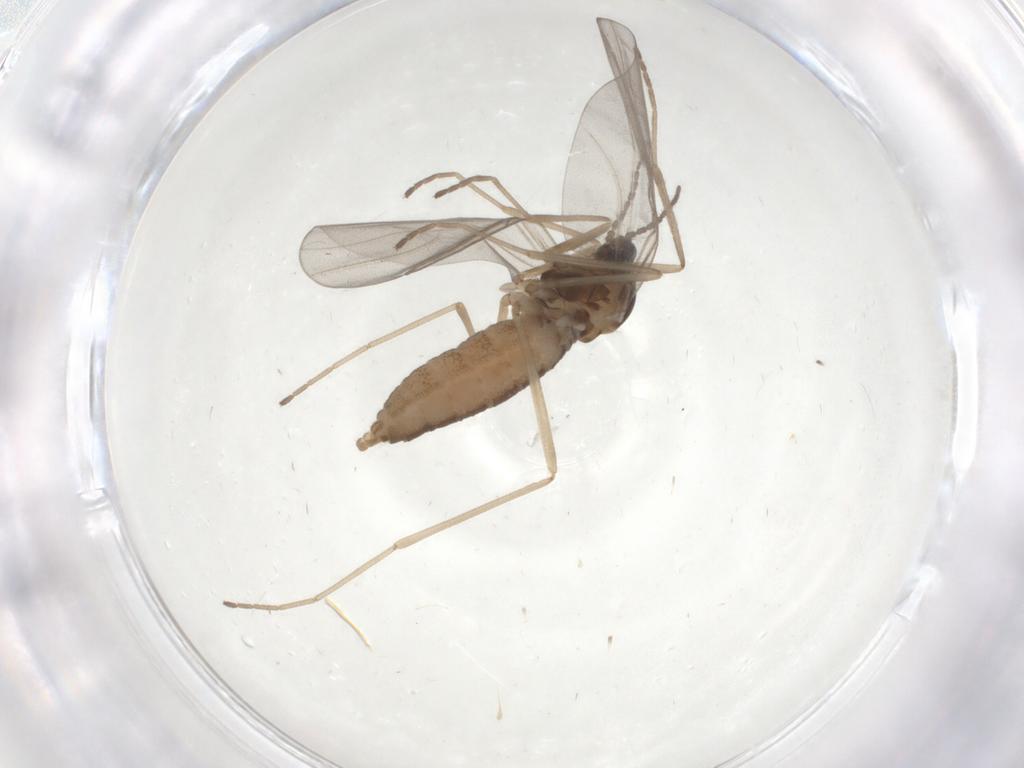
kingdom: Animalia
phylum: Arthropoda
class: Insecta
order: Diptera
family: Cecidomyiidae
